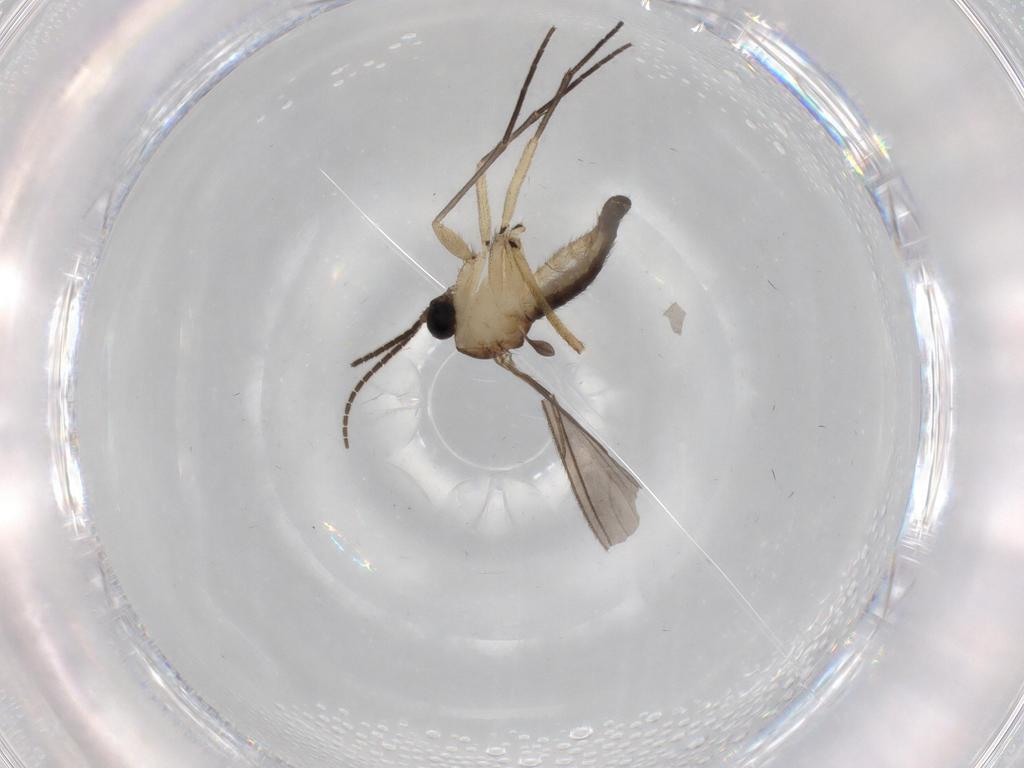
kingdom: Animalia
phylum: Arthropoda
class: Insecta
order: Diptera
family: Sciaridae
